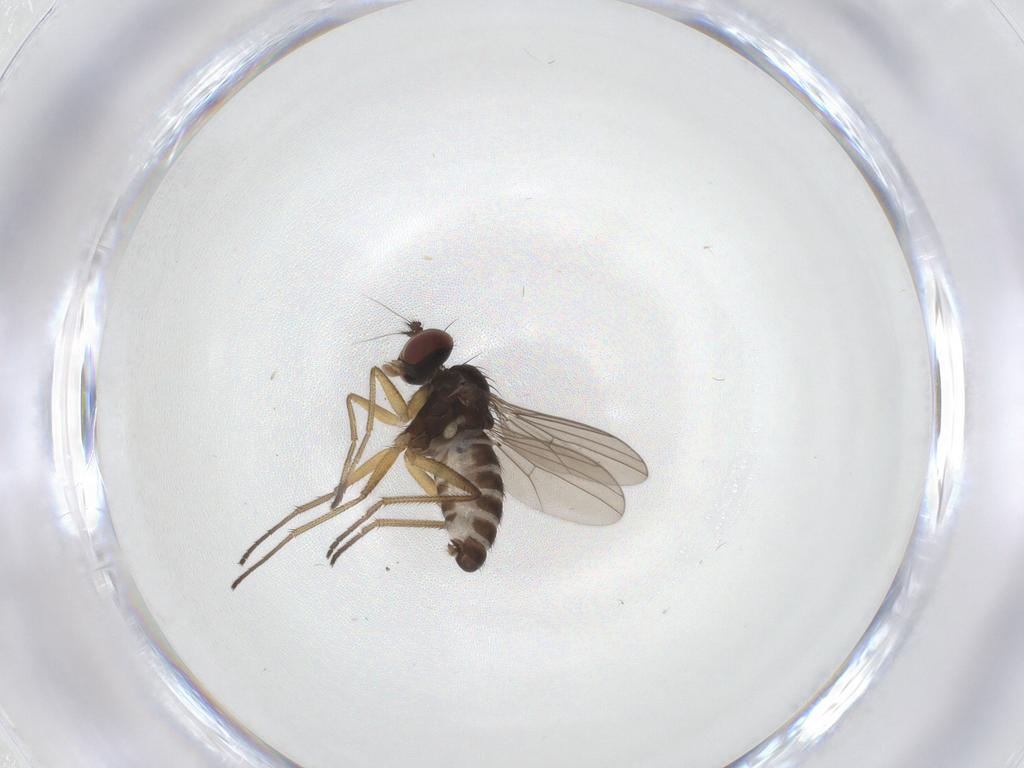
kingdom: Animalia
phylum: Arthropoda
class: Insecta
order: Diptera
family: Dolichopodidae
